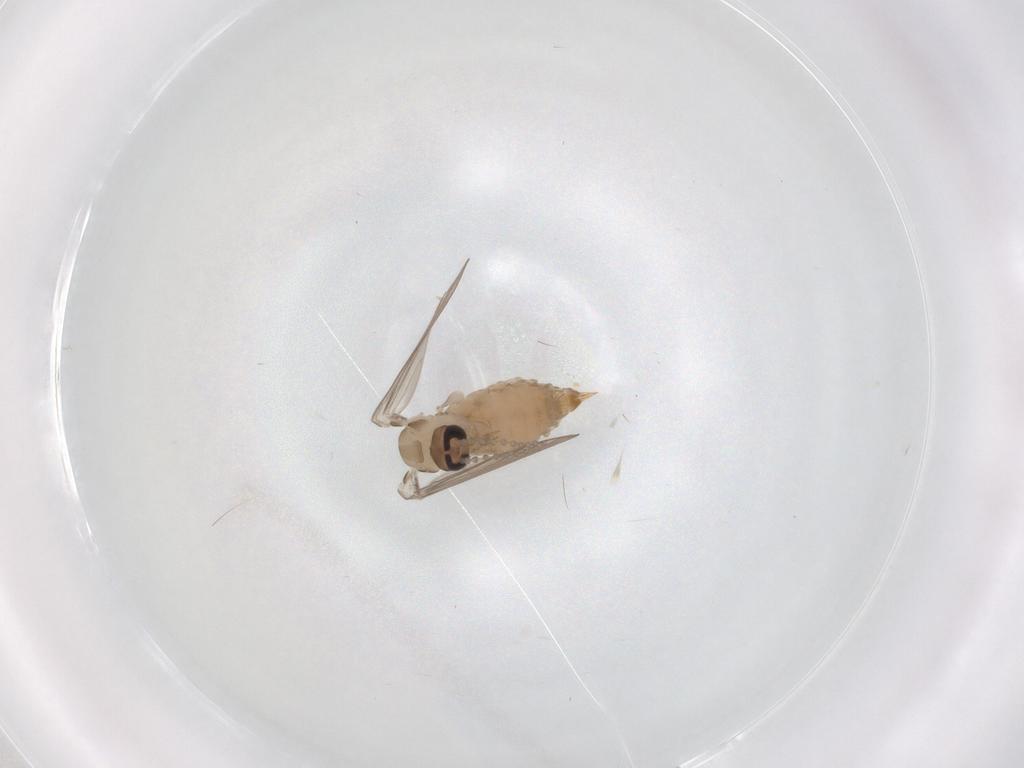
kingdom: Animalia
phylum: Arthropoda
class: Insecta
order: Diptera
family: Psychodidae
